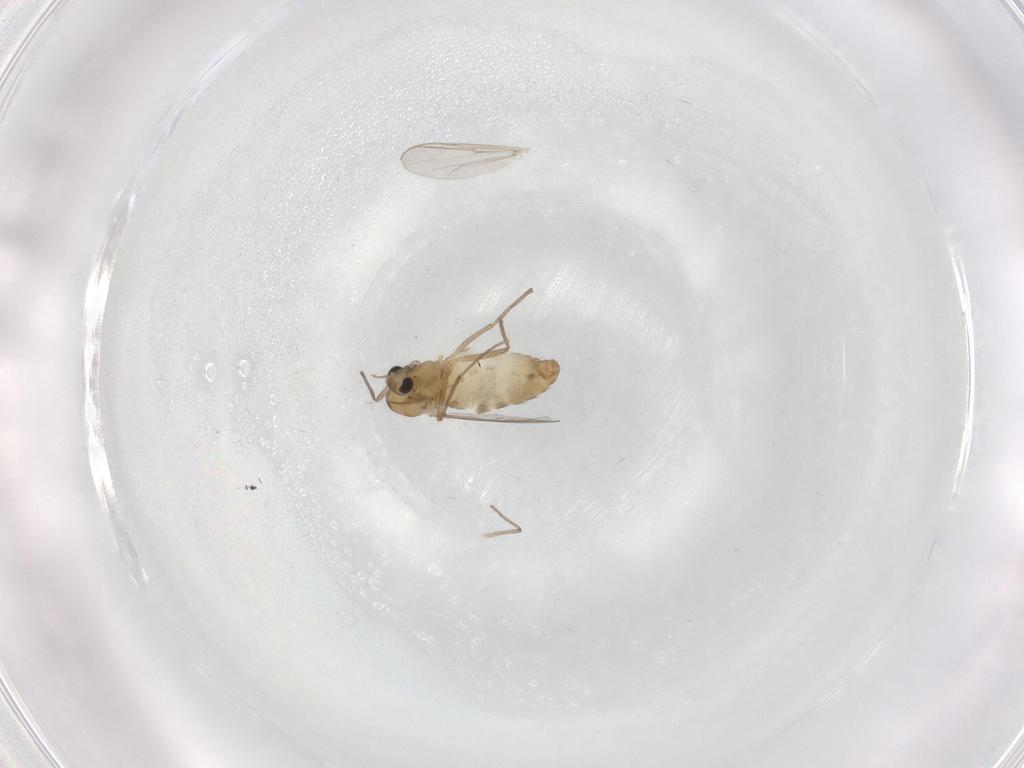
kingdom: Animalia
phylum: Arthropoda
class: Insecta
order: Diptera
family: Chironomidae
